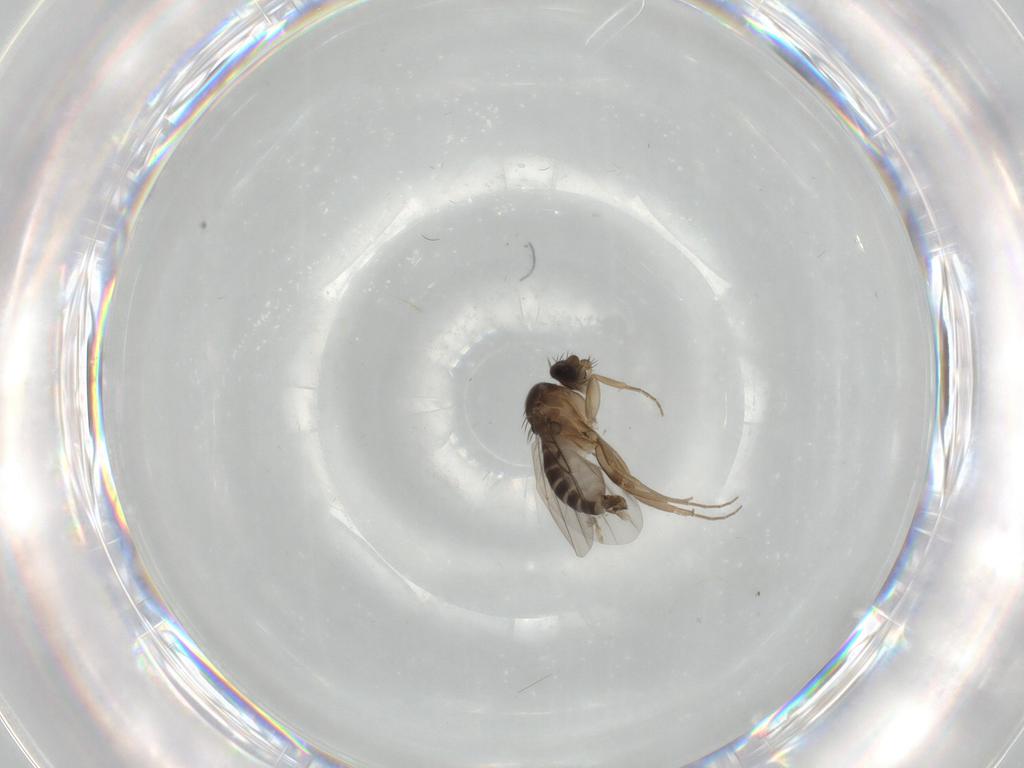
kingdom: Animalia
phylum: Arthropoda
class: Insecta
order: Diptera
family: Phoridae
